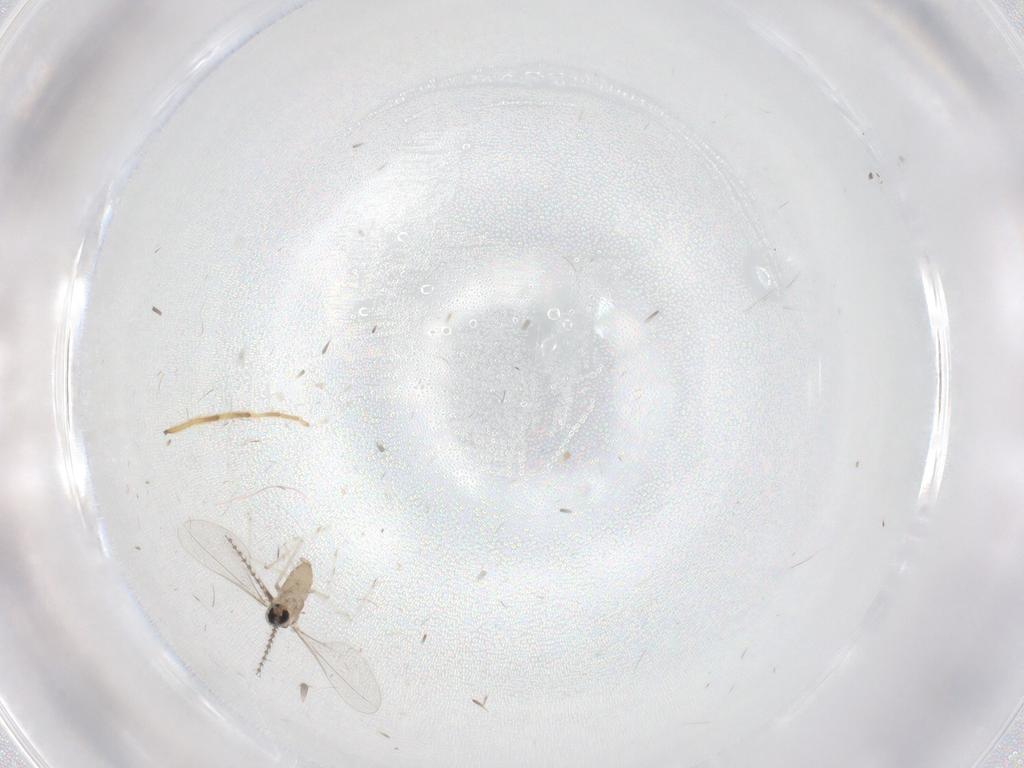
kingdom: Animalia
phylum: Arthropoda
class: Insecta
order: Diptera
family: Cecidomyiidae
